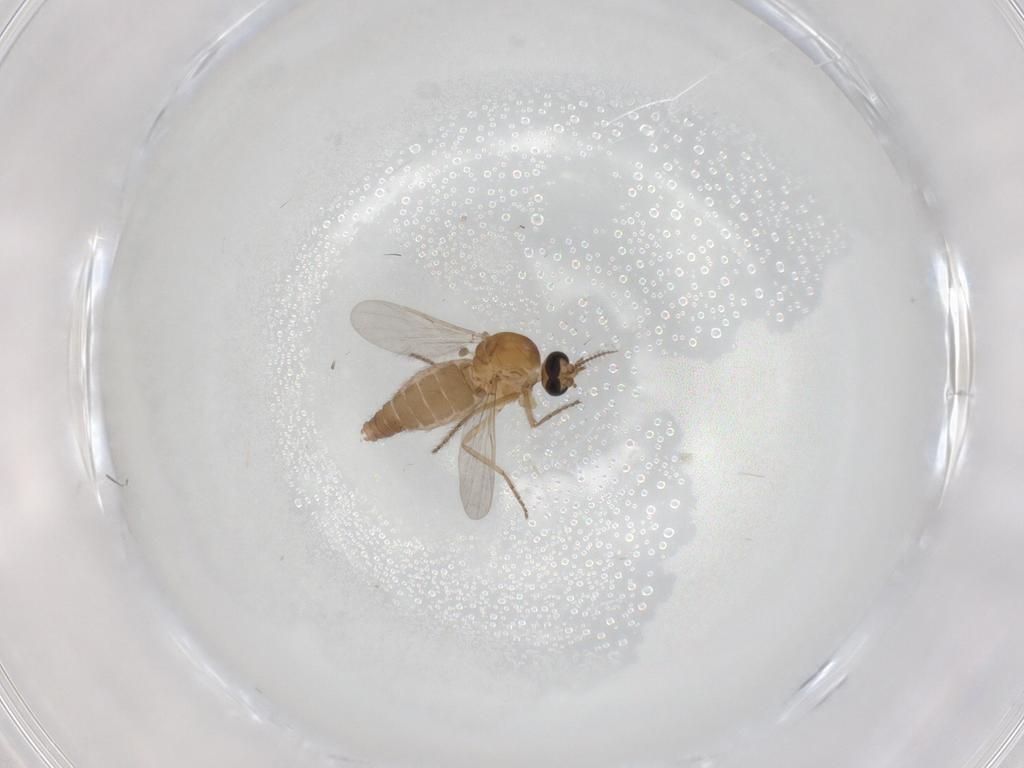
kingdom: Animalia
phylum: Arthropoda
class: Insecta
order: Diptera
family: Ceratopogonidae
